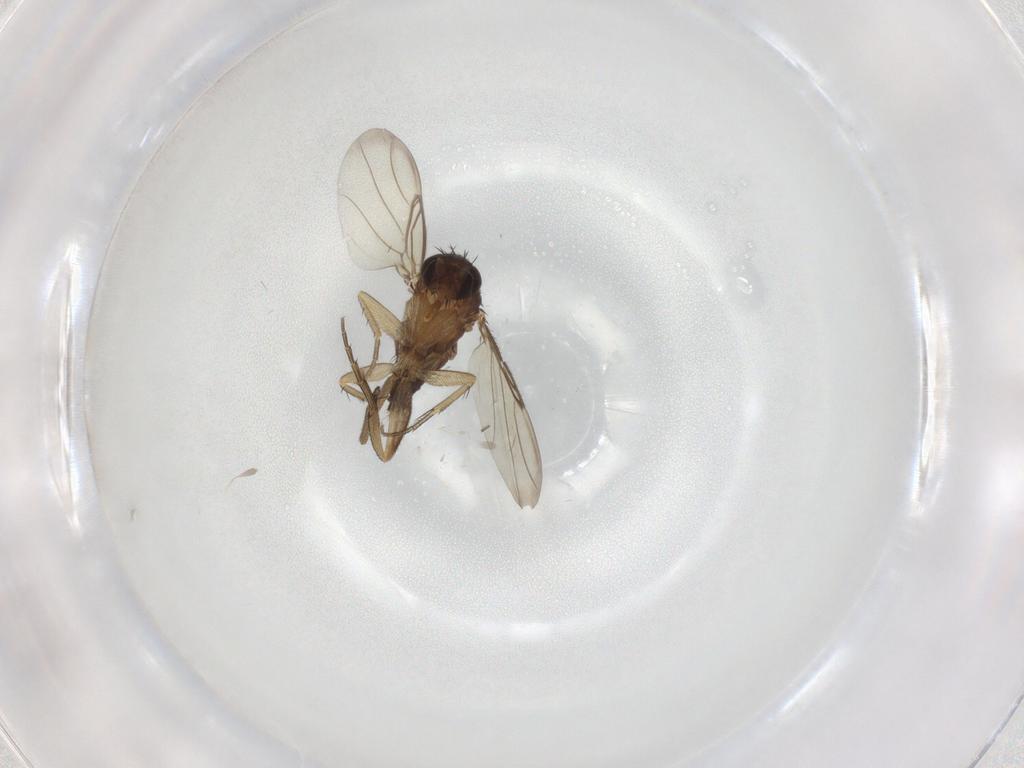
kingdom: Animalia
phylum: Arthropoda
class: Insecta
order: Diptera
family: Phoridae
